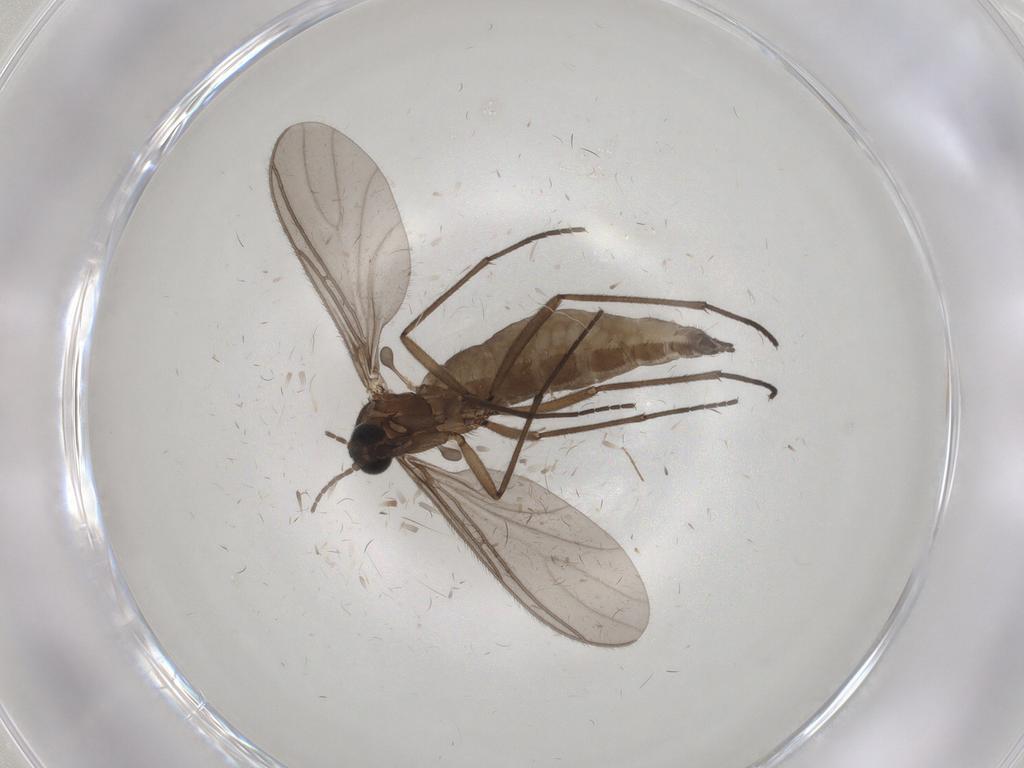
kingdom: Animalia
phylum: Arthropoda
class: Insecta
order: Diptera
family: Sciaridae
